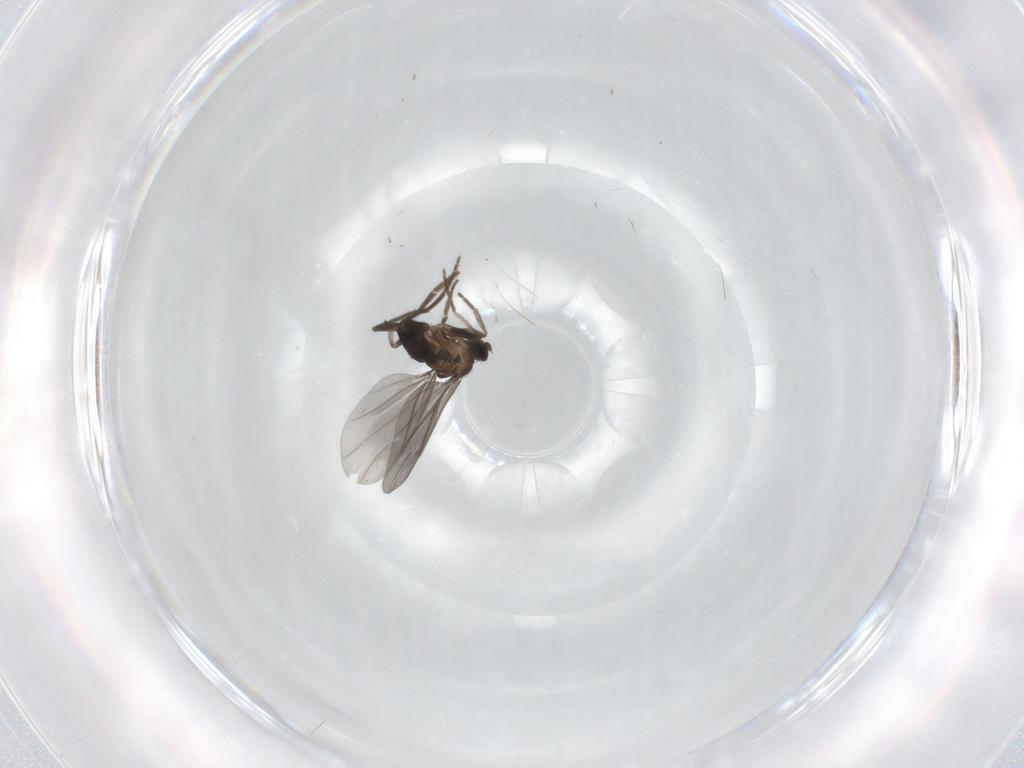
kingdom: Animalia
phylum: Arthropoda
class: Insecta
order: Diptera
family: Phoridae
